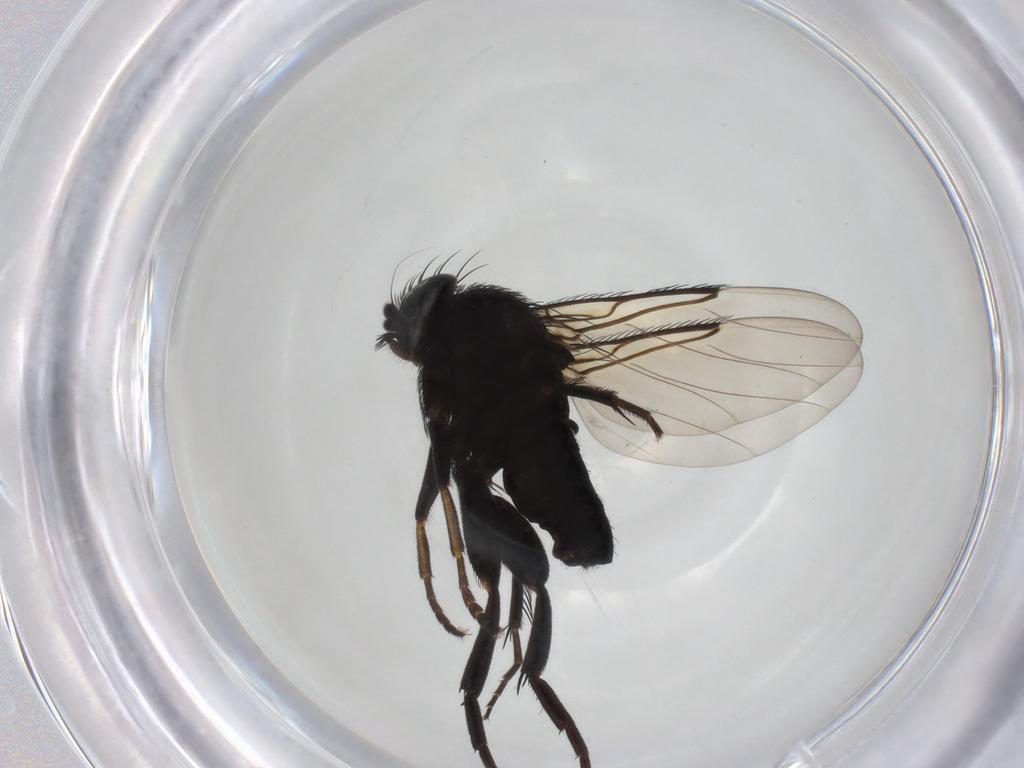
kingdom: Animalia
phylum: Arthropoda
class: Insecta
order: Diptera
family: Phoridae
